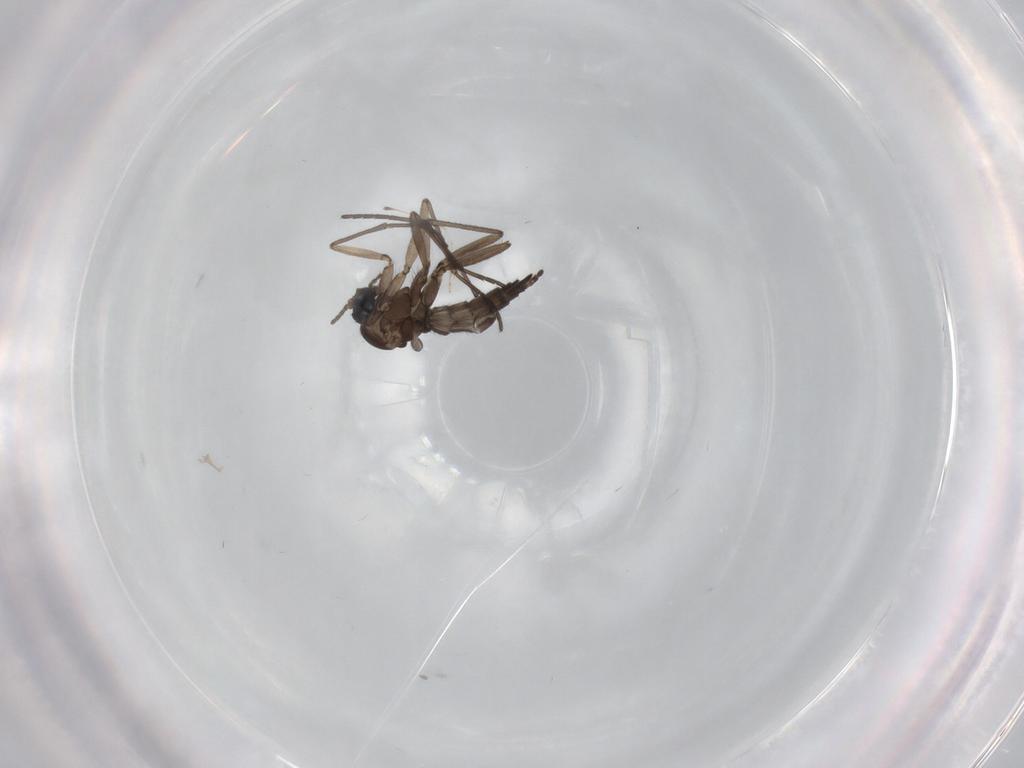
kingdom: Animalia
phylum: Arthropoda
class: Insecta
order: Diptera
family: Sciaridae
